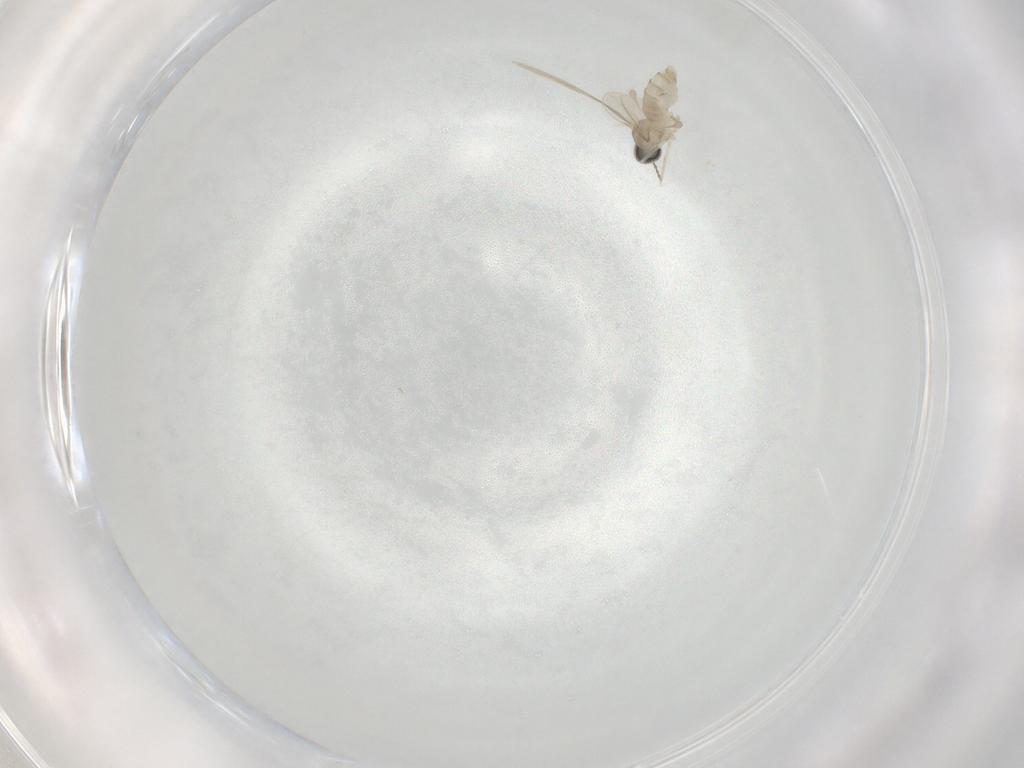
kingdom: Animalia
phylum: Arthropoda
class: Insecta
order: Diptera
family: Cecidomyiidae
